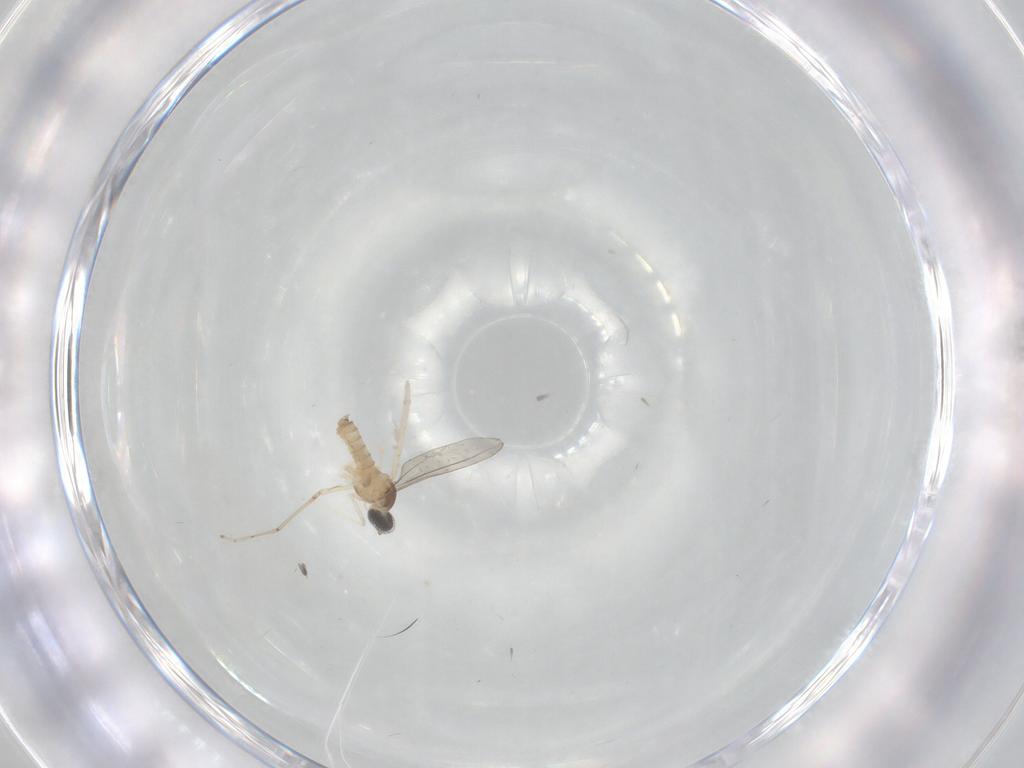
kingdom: Animalia
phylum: Arthropoda
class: Insecta
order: Diptera
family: Cecidomyiidae
